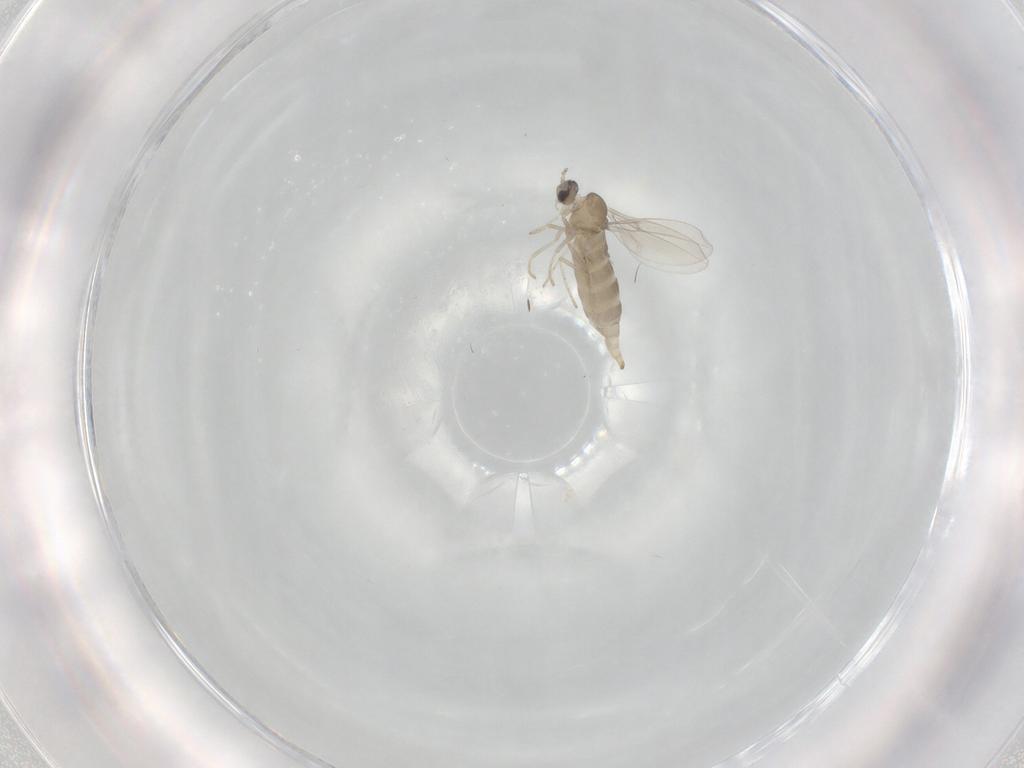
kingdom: Animalia
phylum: Arthropoda
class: Insecta
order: Diptera
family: Cecidomyiidae
